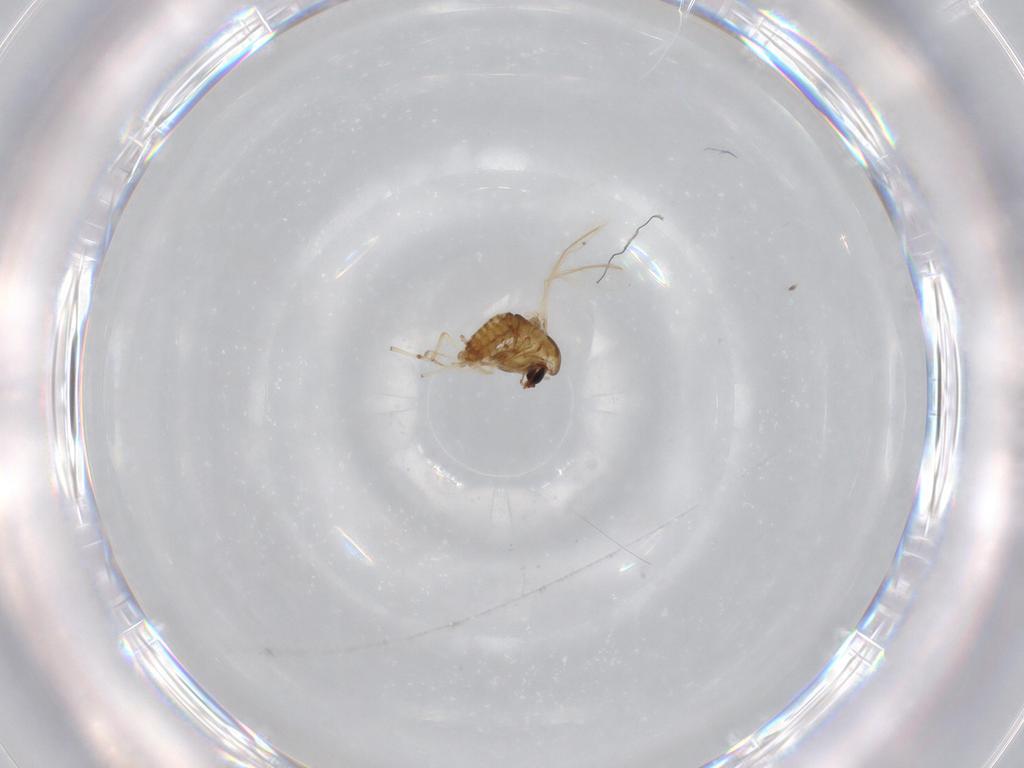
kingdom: Animalia
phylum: Arthropoda
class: Insecta
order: Diptera
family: Chironomidae
